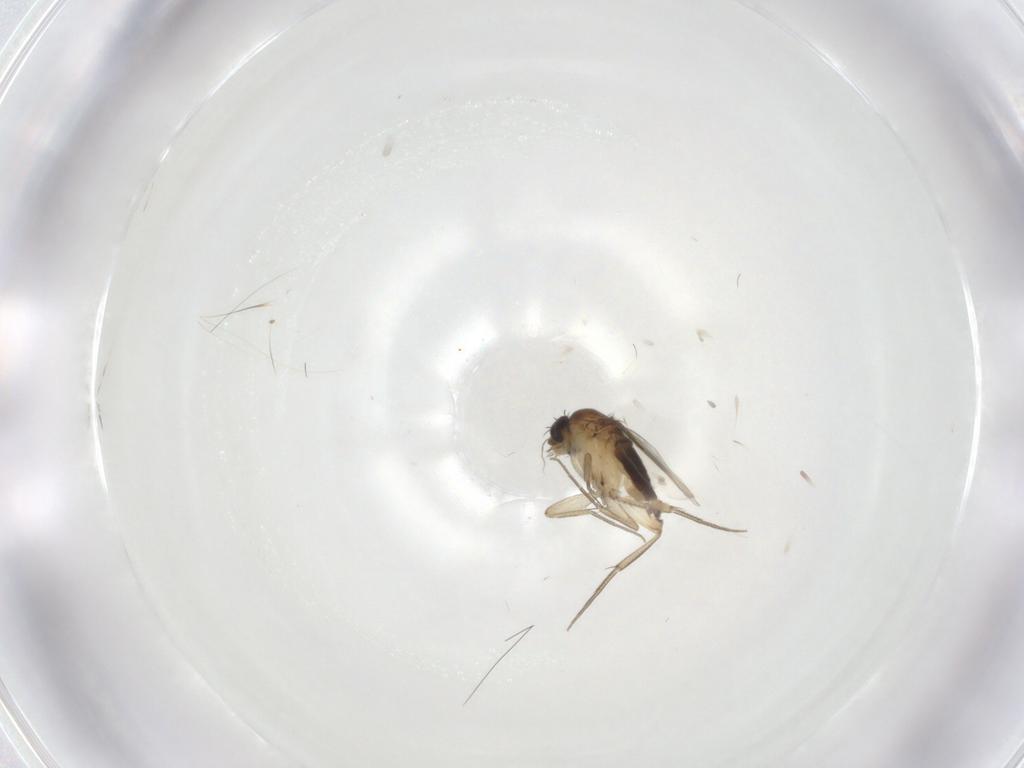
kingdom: Animalia
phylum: Arthropoda
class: Insecta
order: Diptera
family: Phoridae
